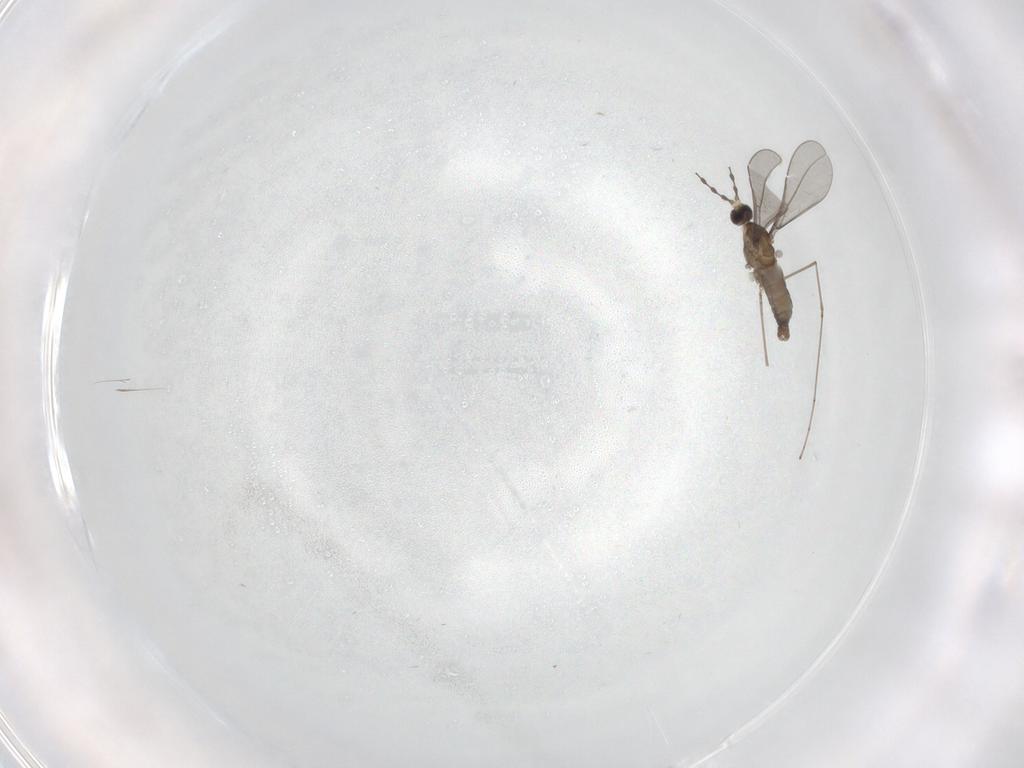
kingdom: Animalia
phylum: Arthropoda
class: Insecta
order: Diptera
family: Cecidomyiidae
